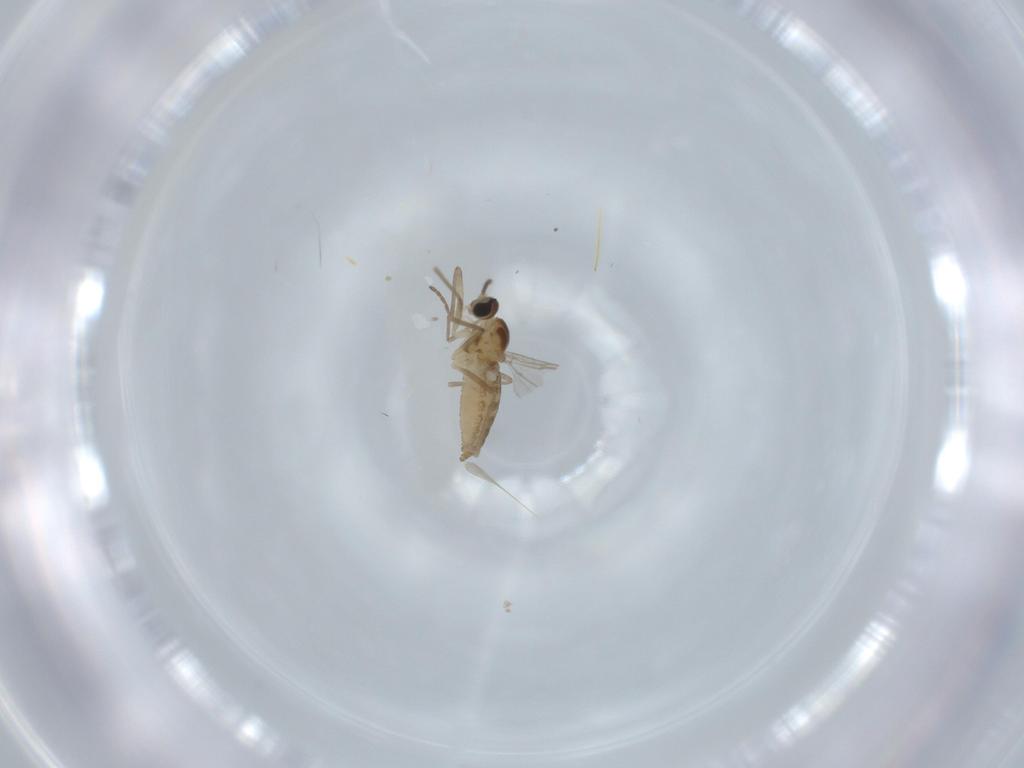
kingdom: Animalia
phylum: Arthropoda
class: Insecta
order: Diptera
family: Cecidomyiidae
